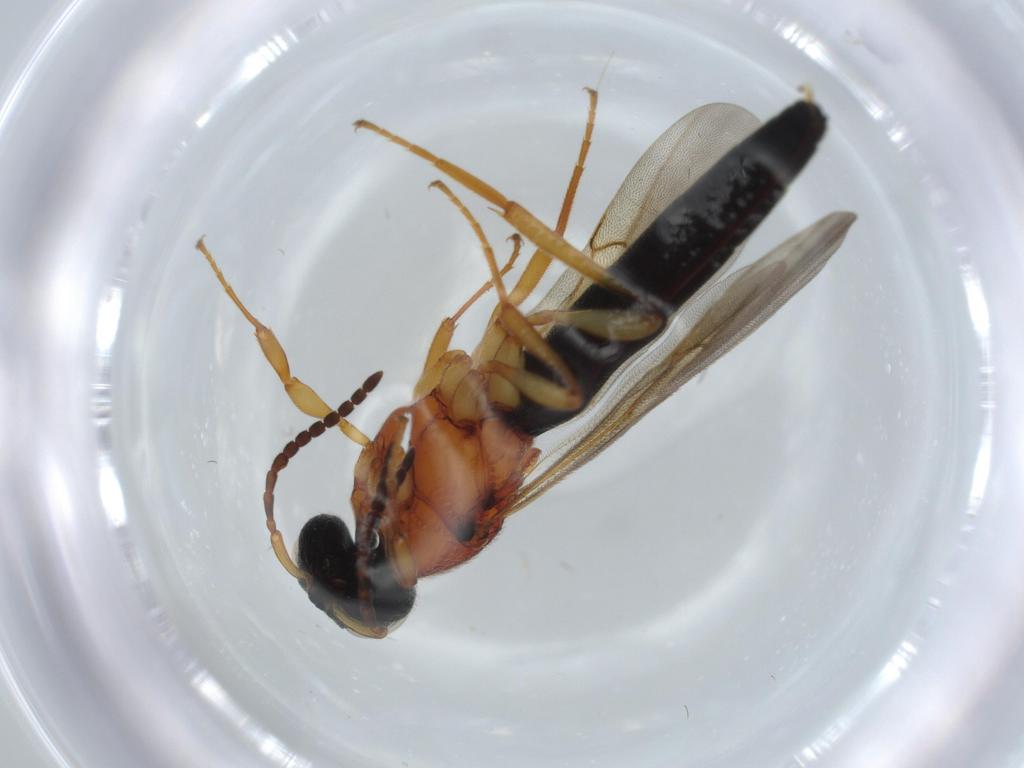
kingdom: Animalia
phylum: Arthropoda
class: Insecta
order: Hymenoptera
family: Scelionidae
